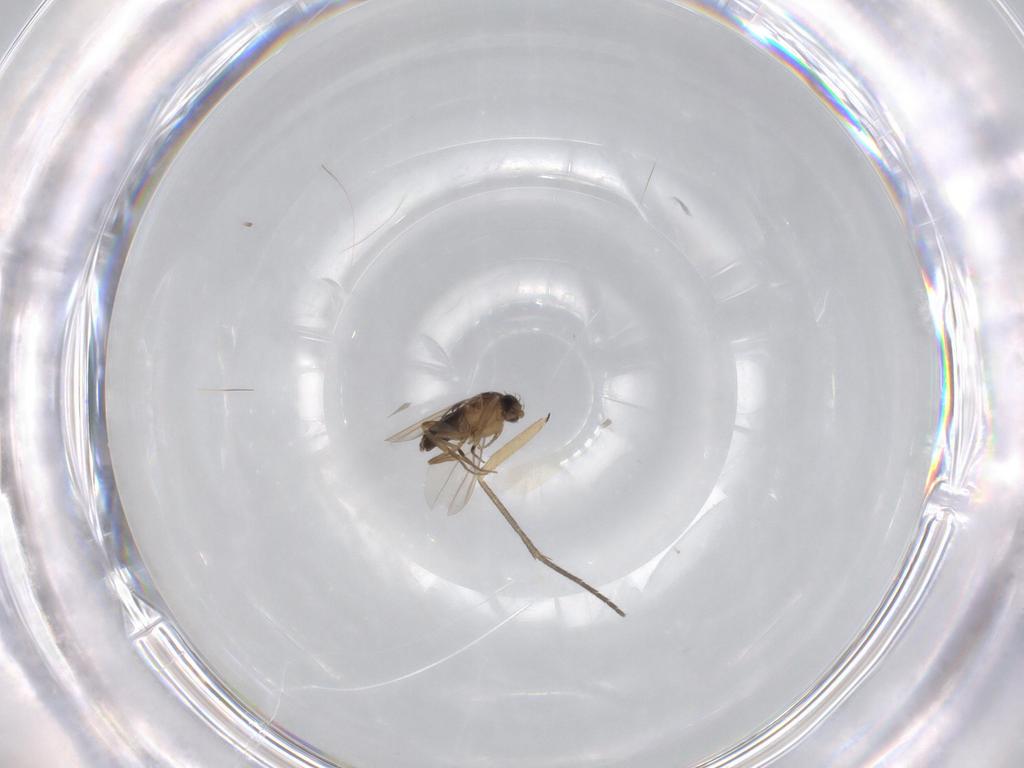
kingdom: Animalia
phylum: Arthropoda
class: Insecta
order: Diptera
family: Sciaridae
